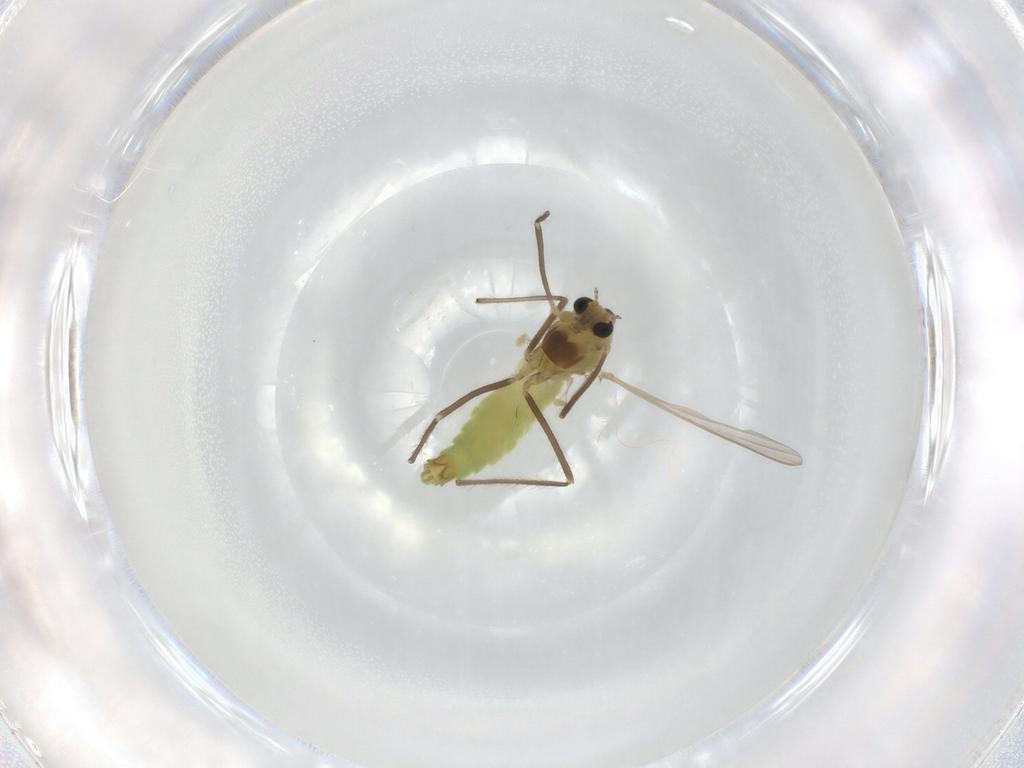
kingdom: Animalia
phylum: Arthropoda
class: Insecta
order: Diptera
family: Chironomidae
